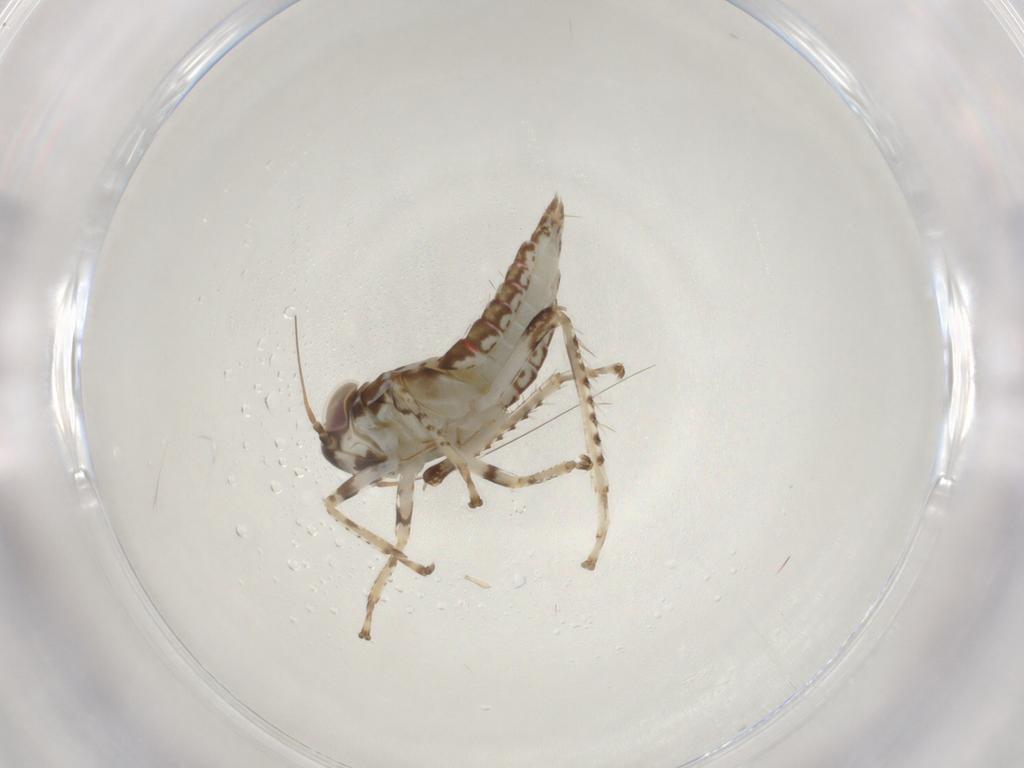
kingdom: Animalia
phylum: Arthropoda
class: Insecta
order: Hemiptera
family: Cicadellidae
